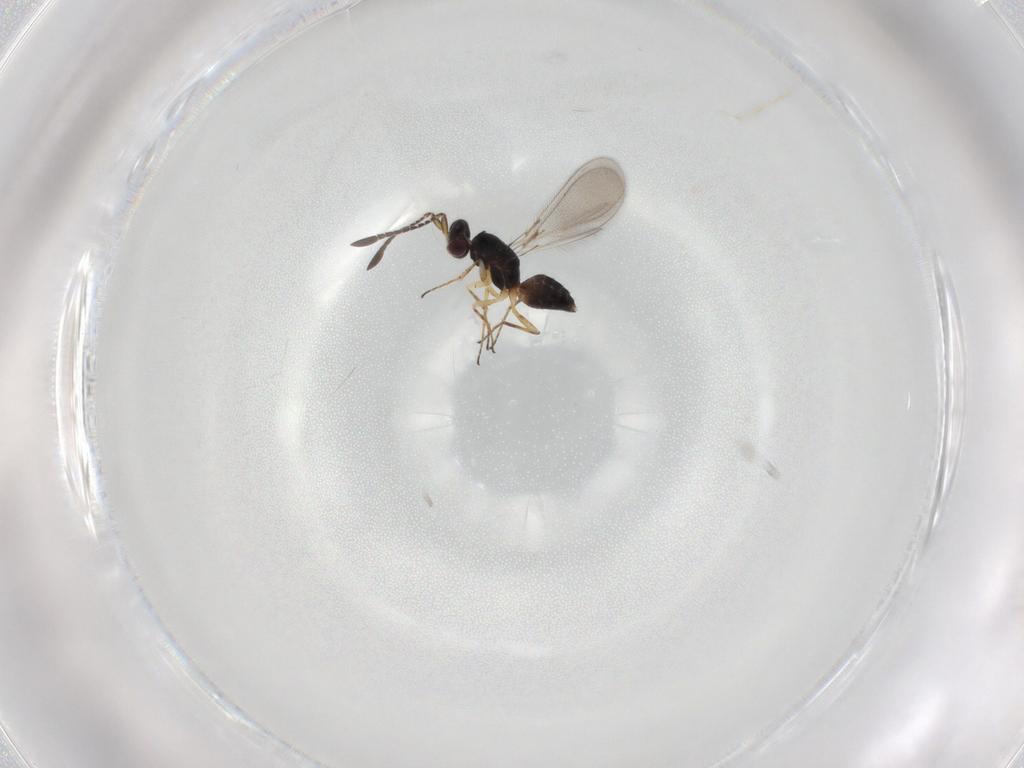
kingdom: Animalia
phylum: Arthropoda
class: Insecta
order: Hymenoptera
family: Mymaridae
